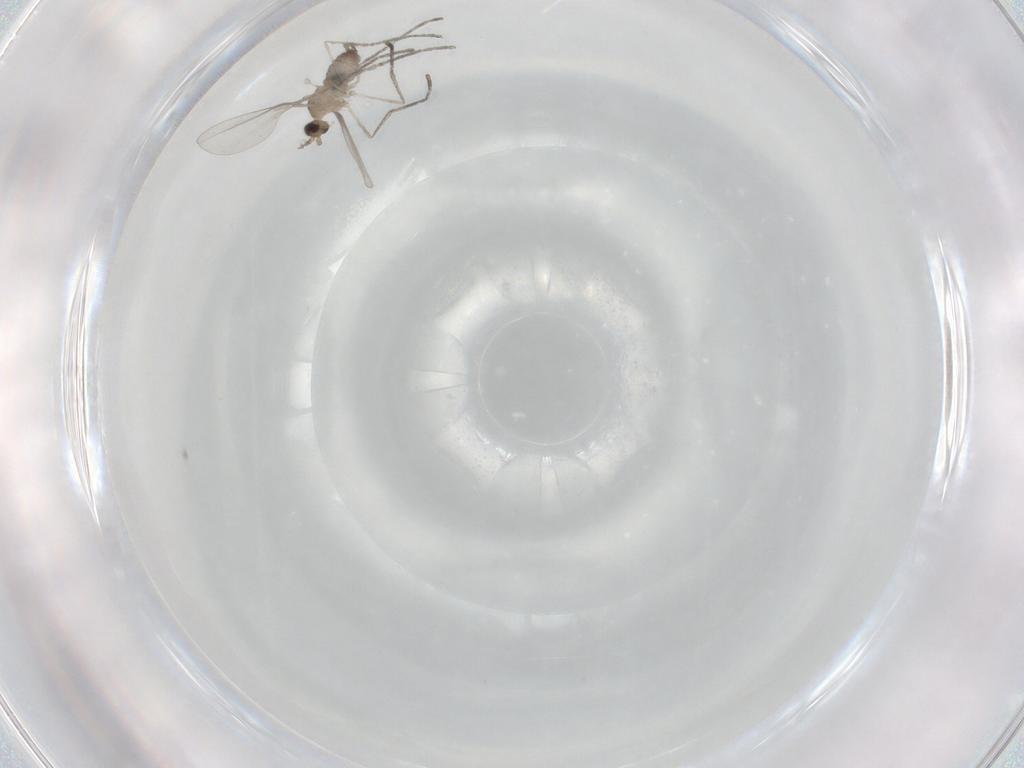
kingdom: Animalia
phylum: Arthropoda
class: Insecta
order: Diptera
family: Cecidomyiidae
